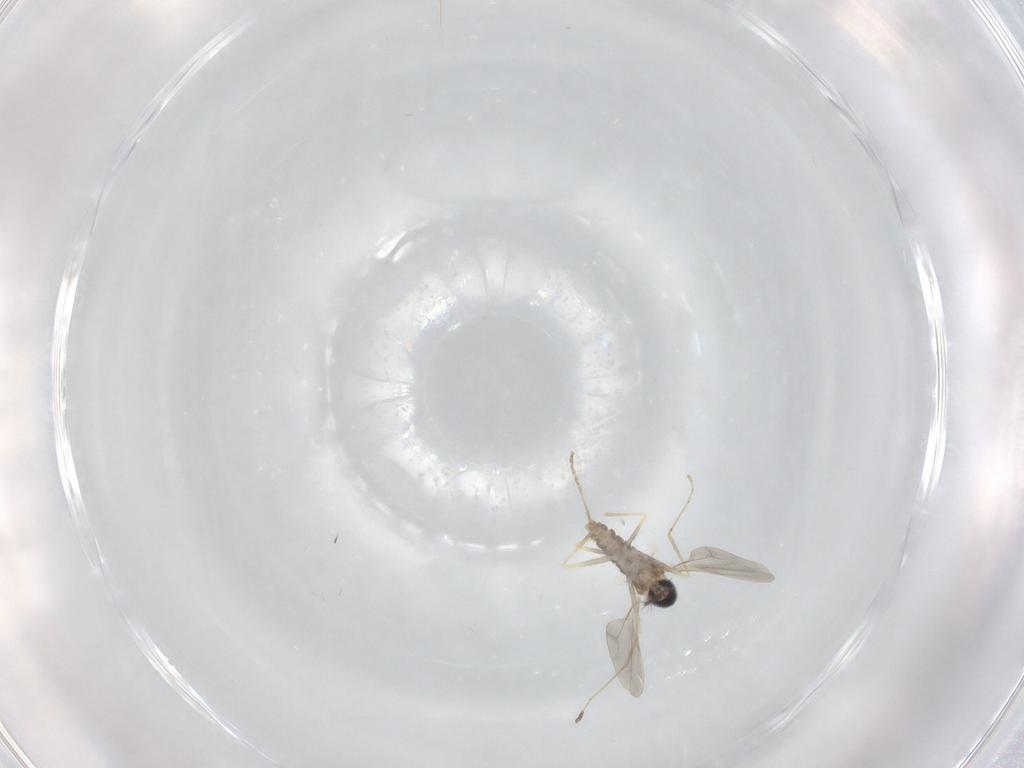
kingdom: Animalia
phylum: Arthropoda
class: Insecta
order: Diptera
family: Cecidomyiidae
